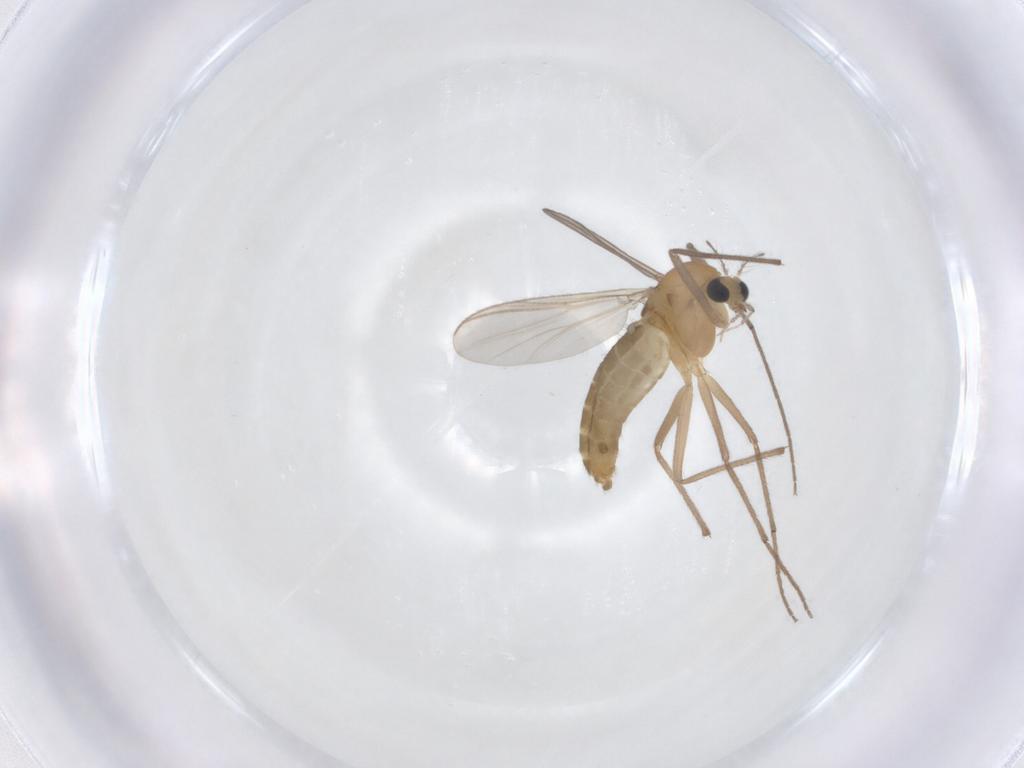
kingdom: Animalia
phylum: Arthropoda
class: Insecta
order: Diptera
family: Chironomidae
